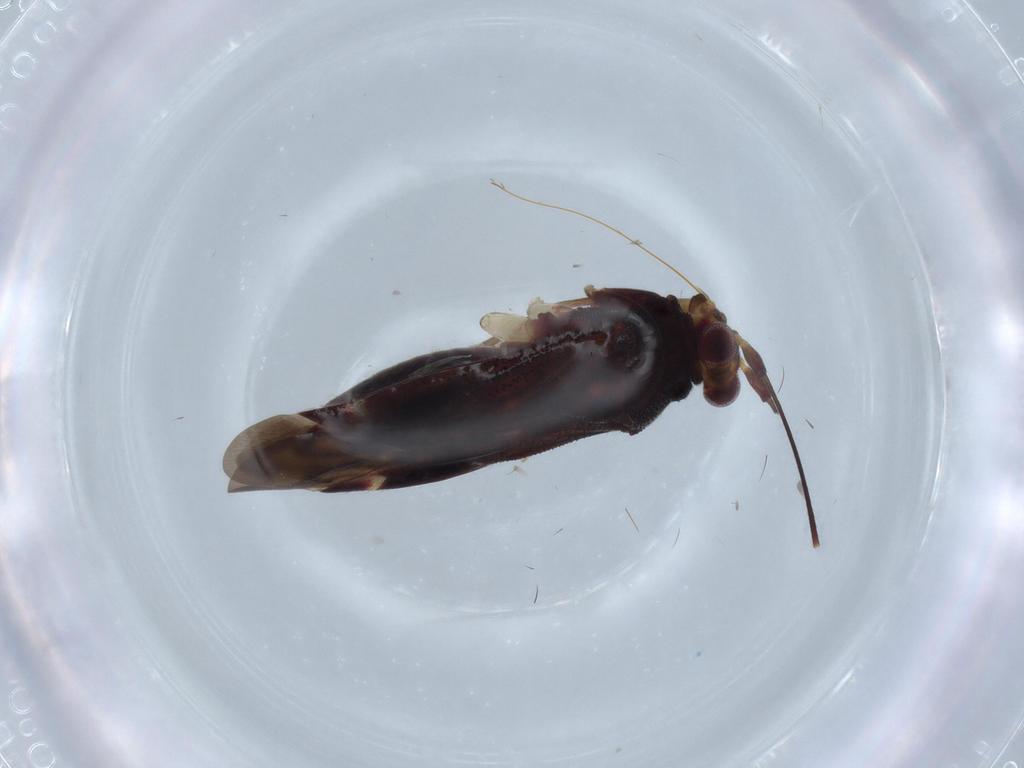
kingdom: Animalia
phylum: Arthropoda
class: Insecta
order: Hemiptera
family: Miridae
